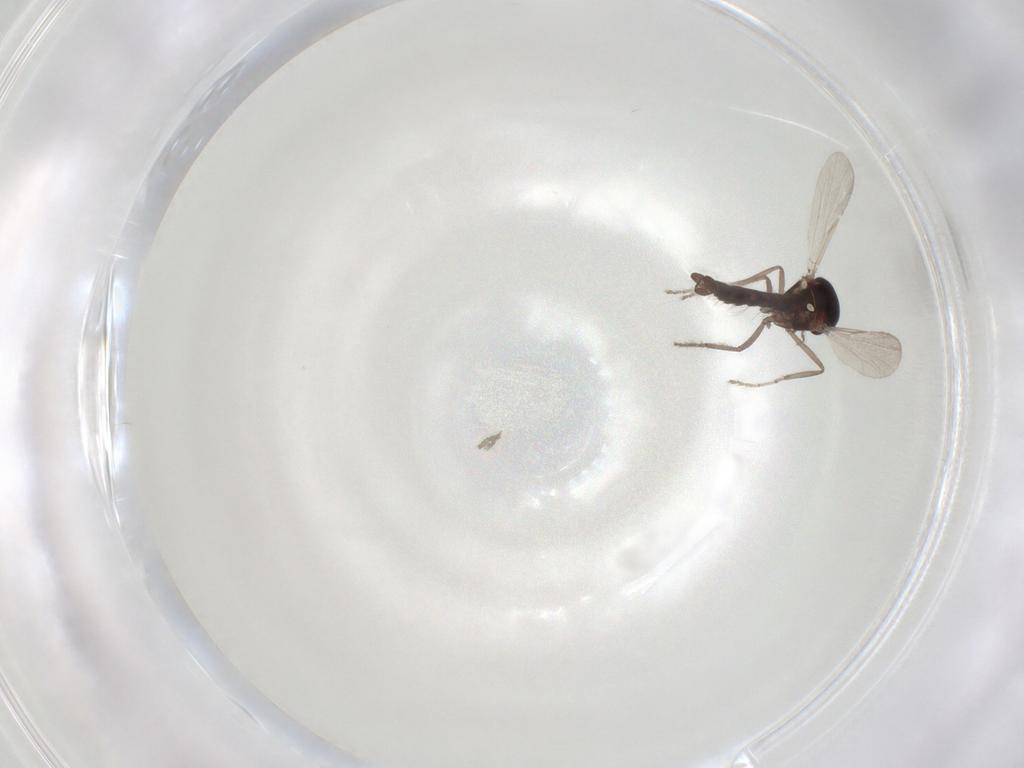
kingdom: Animalia
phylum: Arthropoda
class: Insecta
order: Diptera
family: Ceratopogonidae
